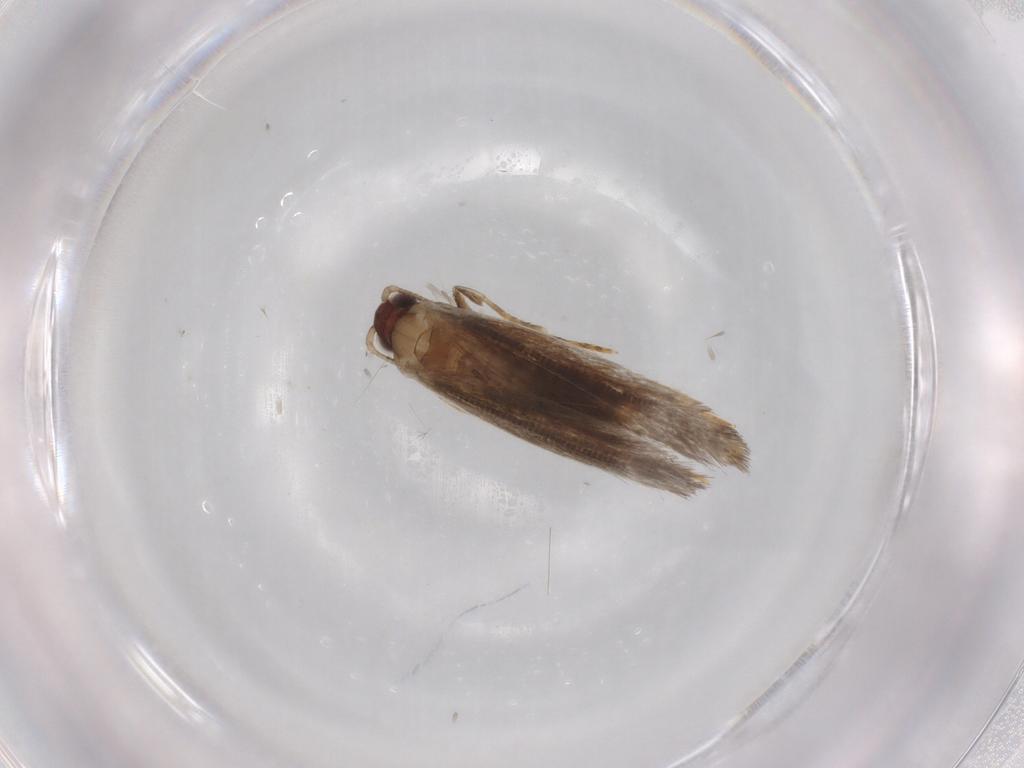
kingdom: Animalia
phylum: Arthropoda
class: Insecta
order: Lepidoptera
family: Tineidae
